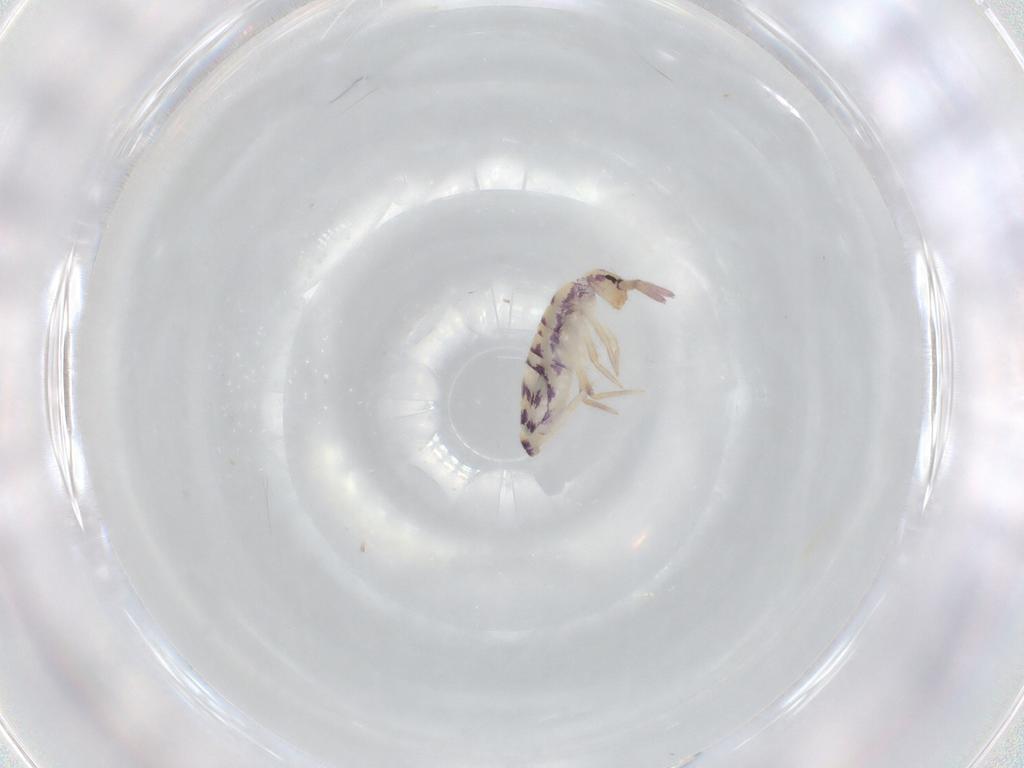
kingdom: Animalia
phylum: Arthropoda
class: Collembola
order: Entomobryomorpha
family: Entomobryidae
